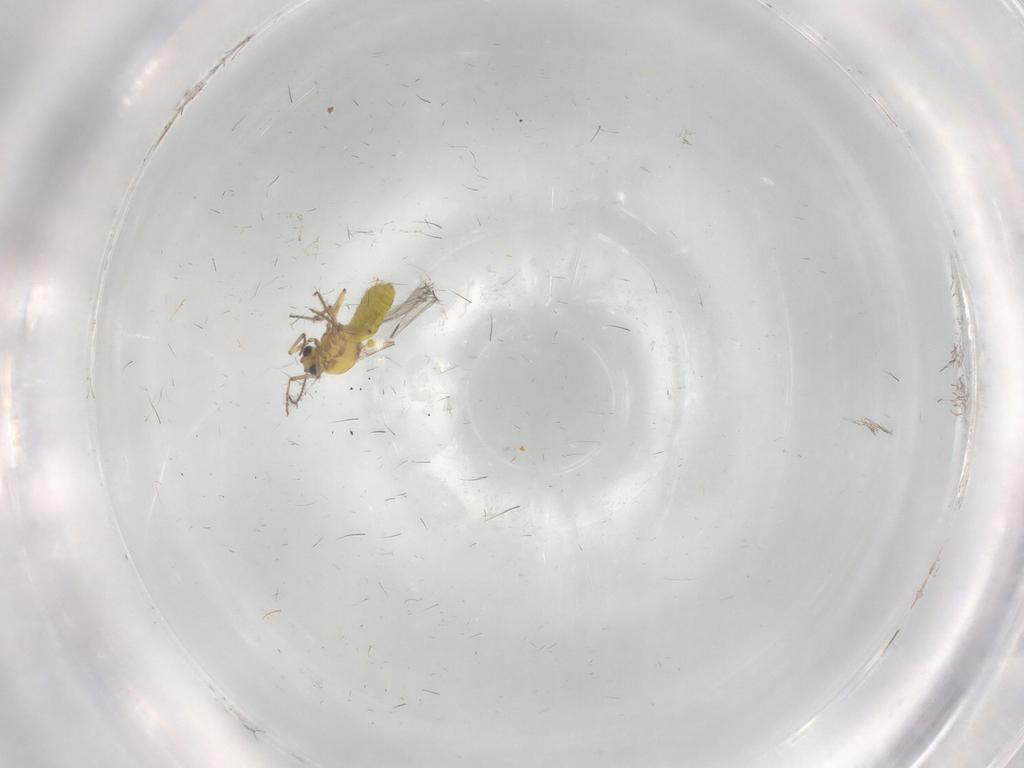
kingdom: Animalia
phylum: Arthropoda
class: Insecta
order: Diptera
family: Ceratopogonidae
